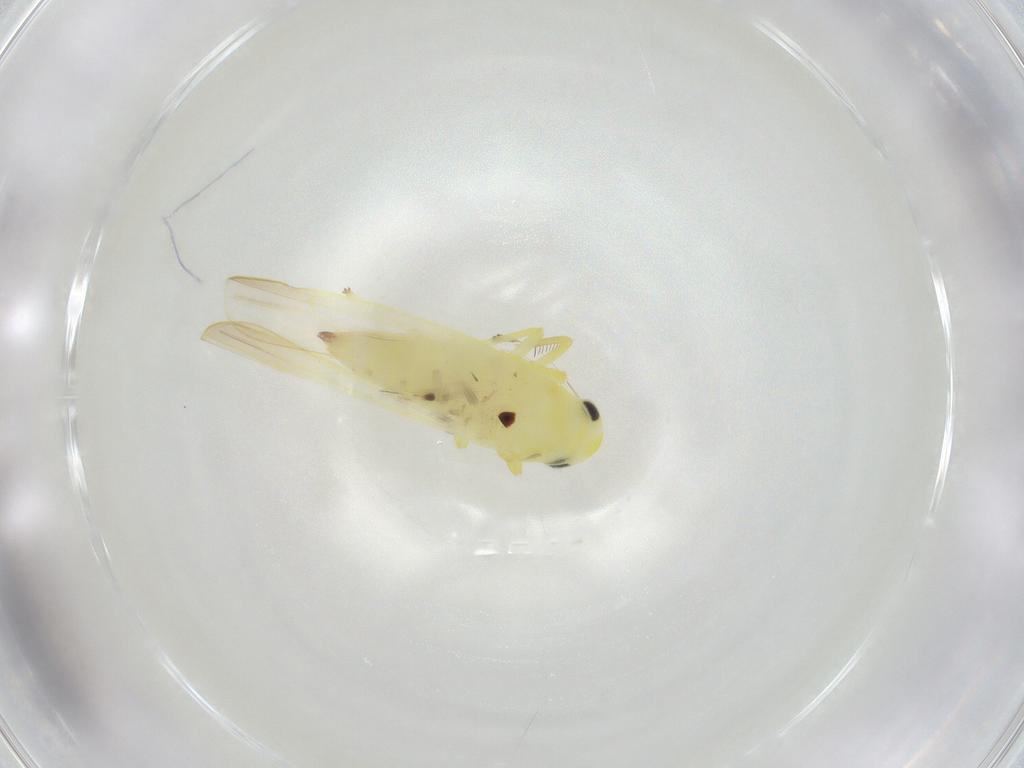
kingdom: Animalia
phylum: Arthropoda
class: Insecta
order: Hemiptera
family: Cicadellidae
